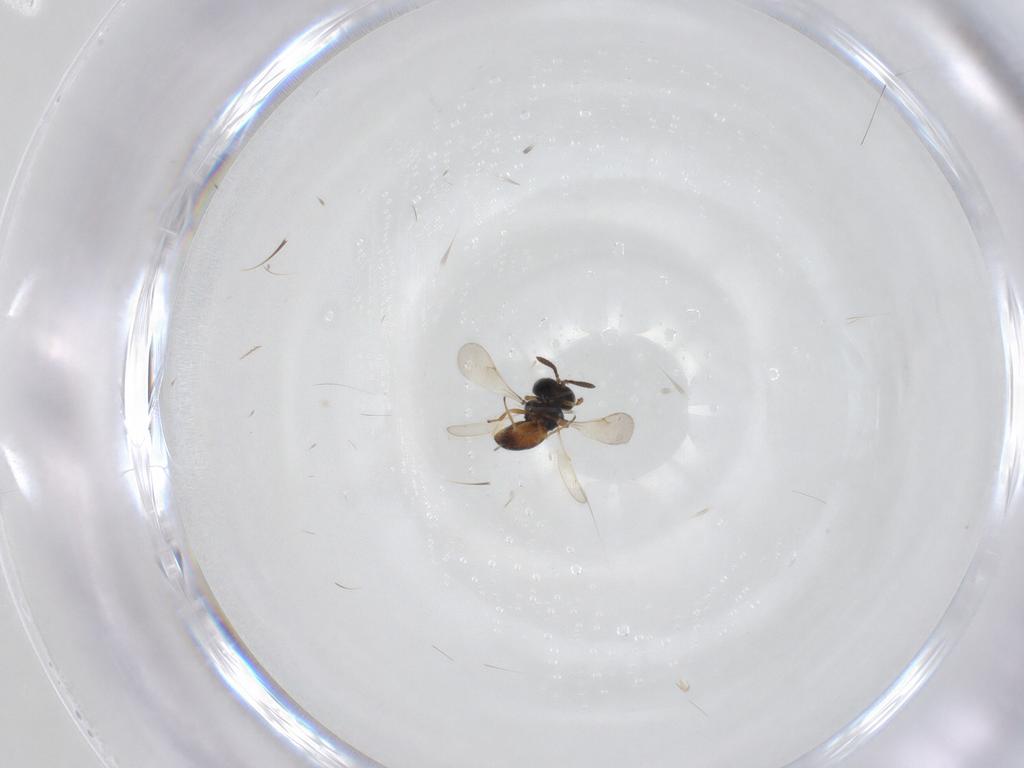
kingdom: Animalia
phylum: Arthropoda
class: Insecta
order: Hymenoptera
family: Scelionidae
